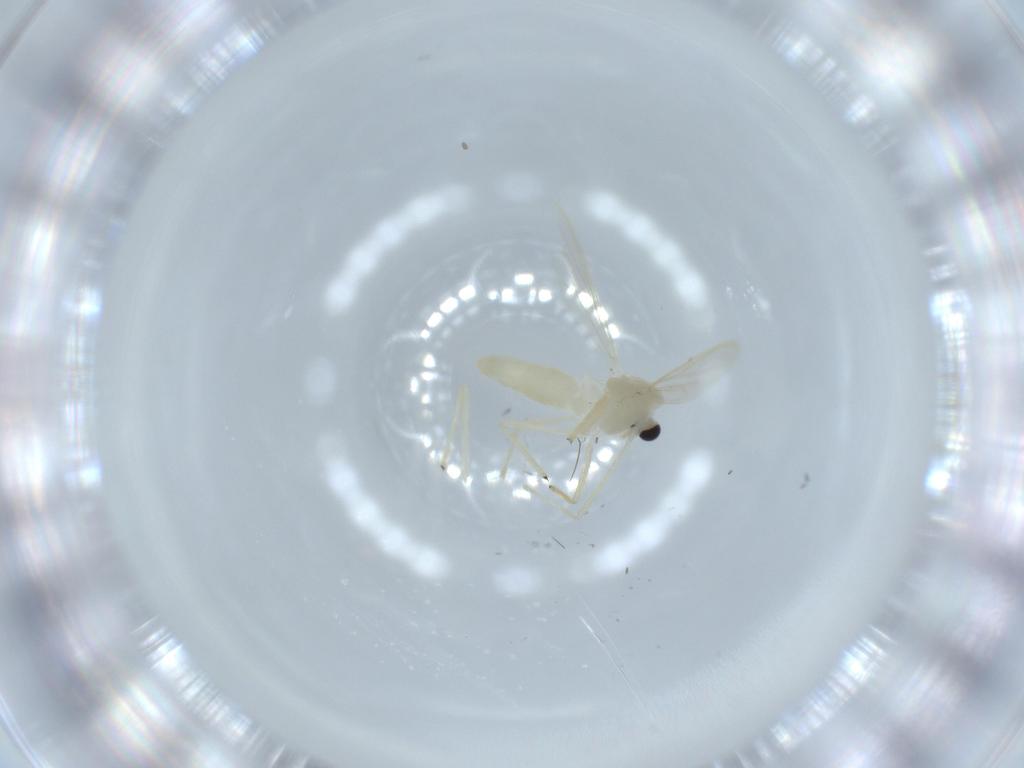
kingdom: Animalia
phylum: Arthropoda
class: Insecta
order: Diptera
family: Chironomidae
